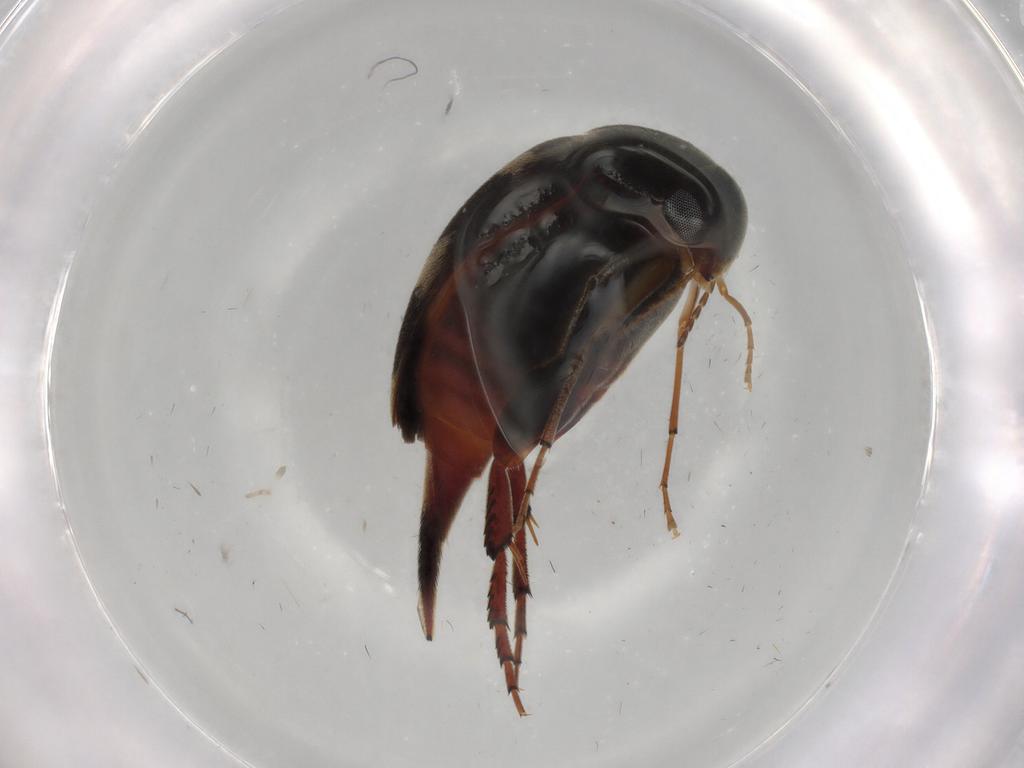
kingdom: Animalia
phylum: Arthropoda
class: Insecta
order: Coleoptera
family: Mordellidae
